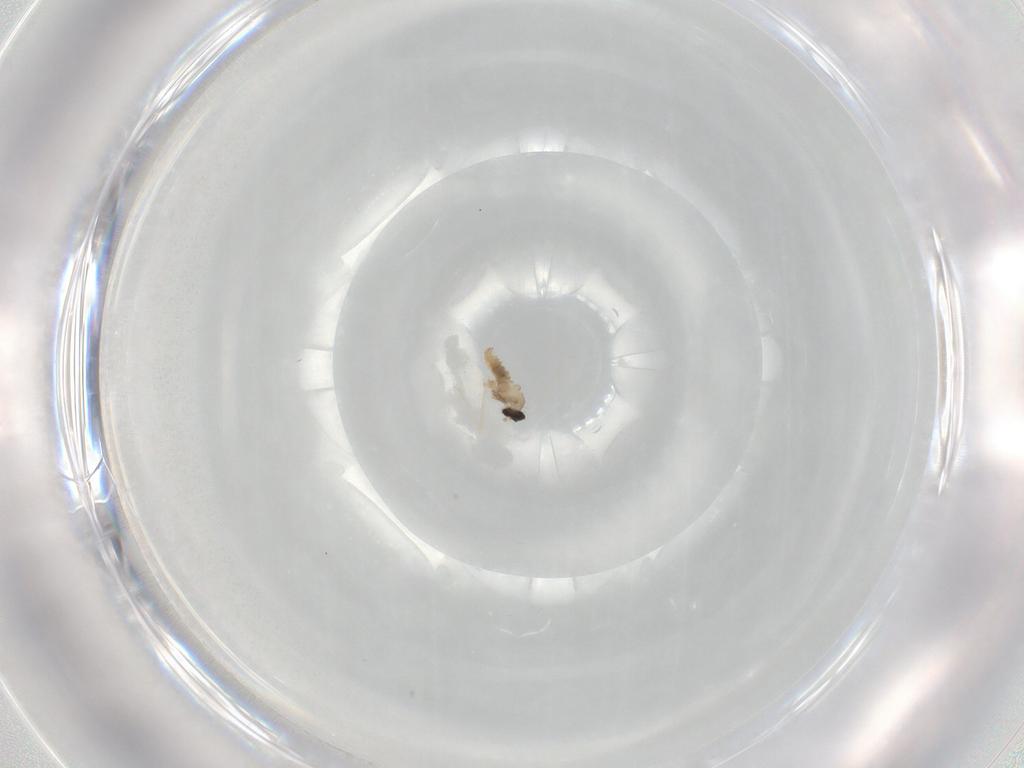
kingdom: Animalia
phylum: Arthropoda
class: Insecta
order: Diptera
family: Cecidomyiidae
